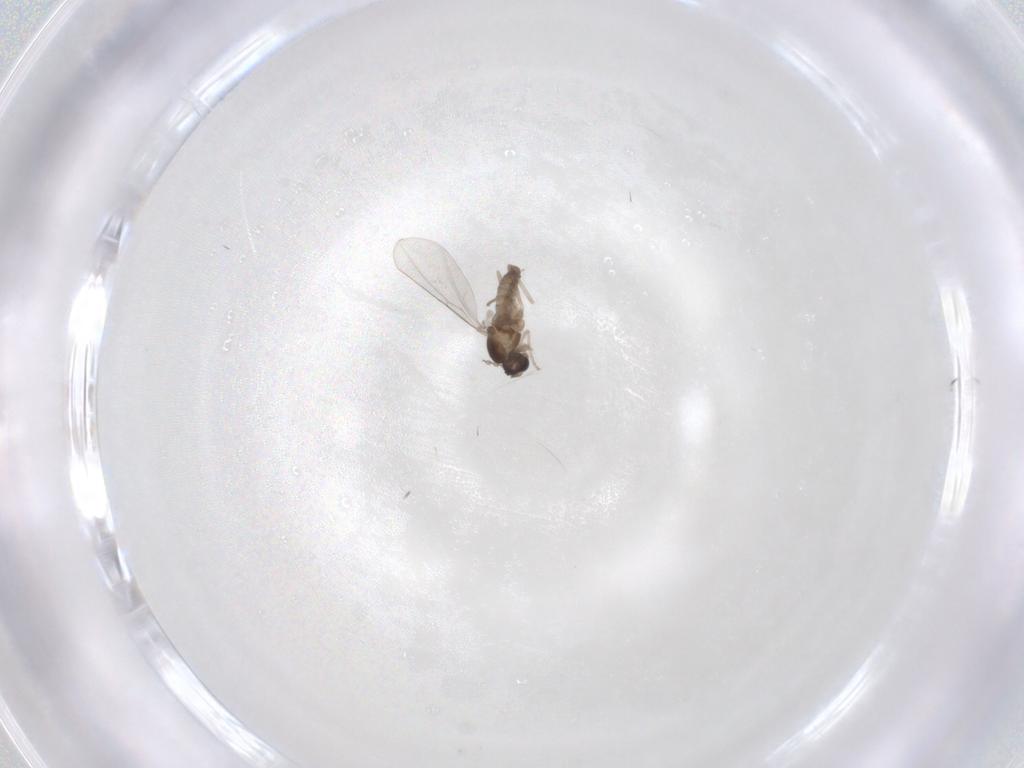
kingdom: Animalia
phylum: Arthropoda
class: Insecta
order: Diptera
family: Cecidomyiidae
